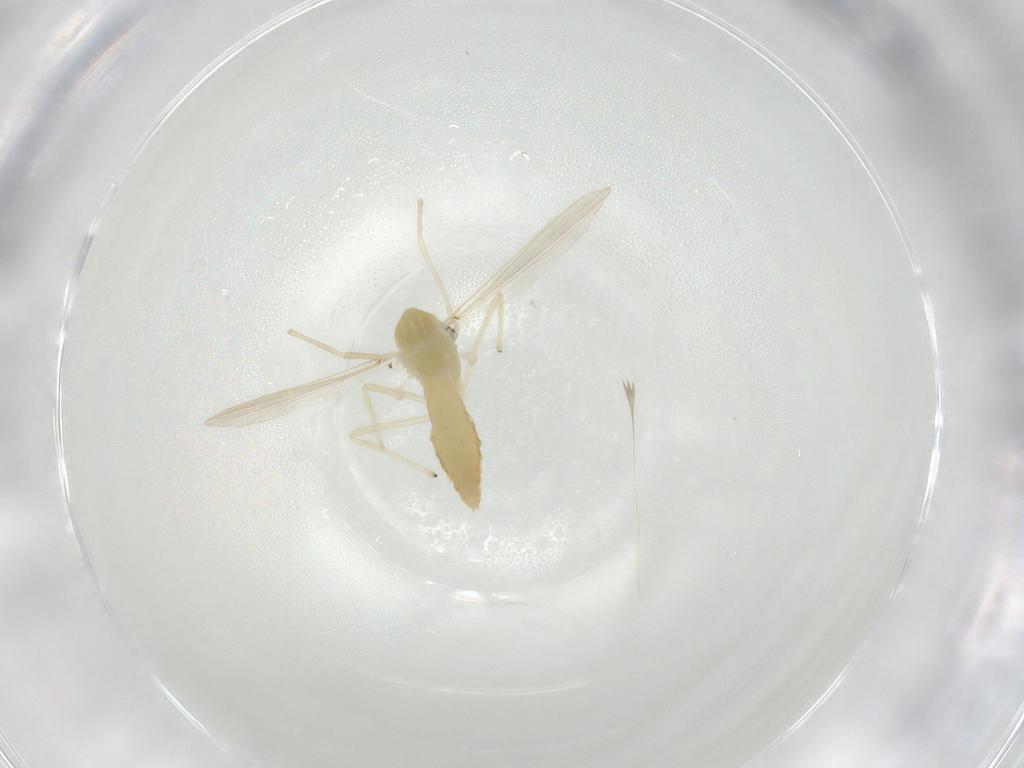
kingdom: Animalia
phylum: Arthropoda
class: Insecta
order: Diptera
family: Chironomidae
